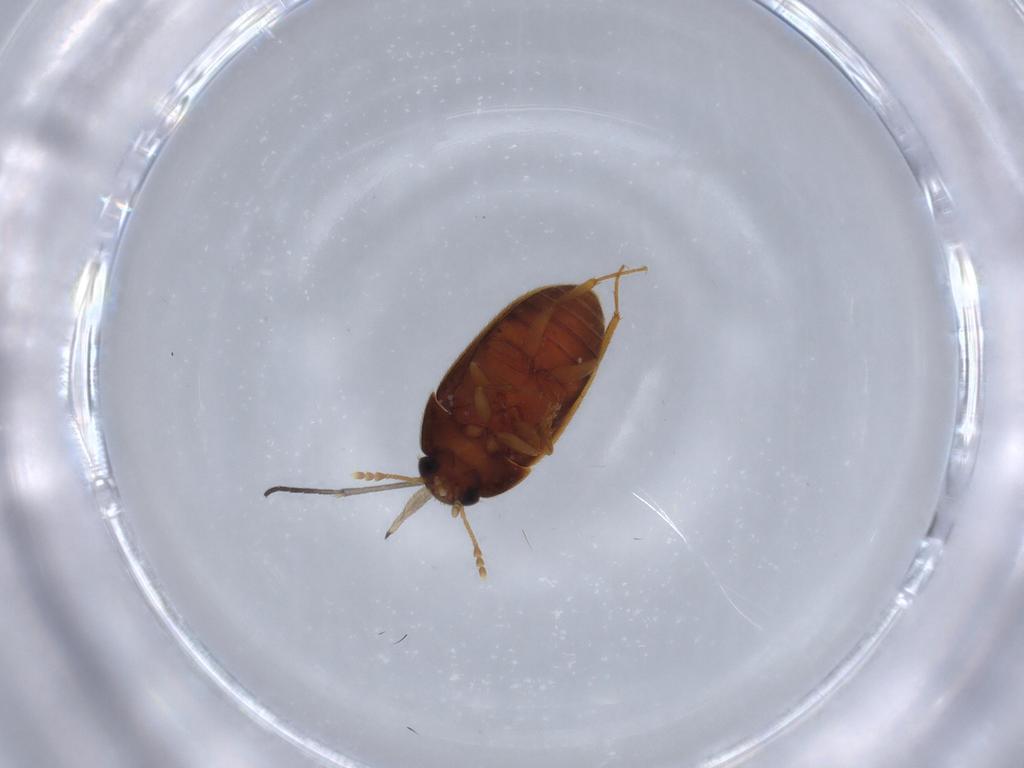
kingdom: Animalia
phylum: Arthropoda
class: Insecta
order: Coleoptera
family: Mycetophagidae
